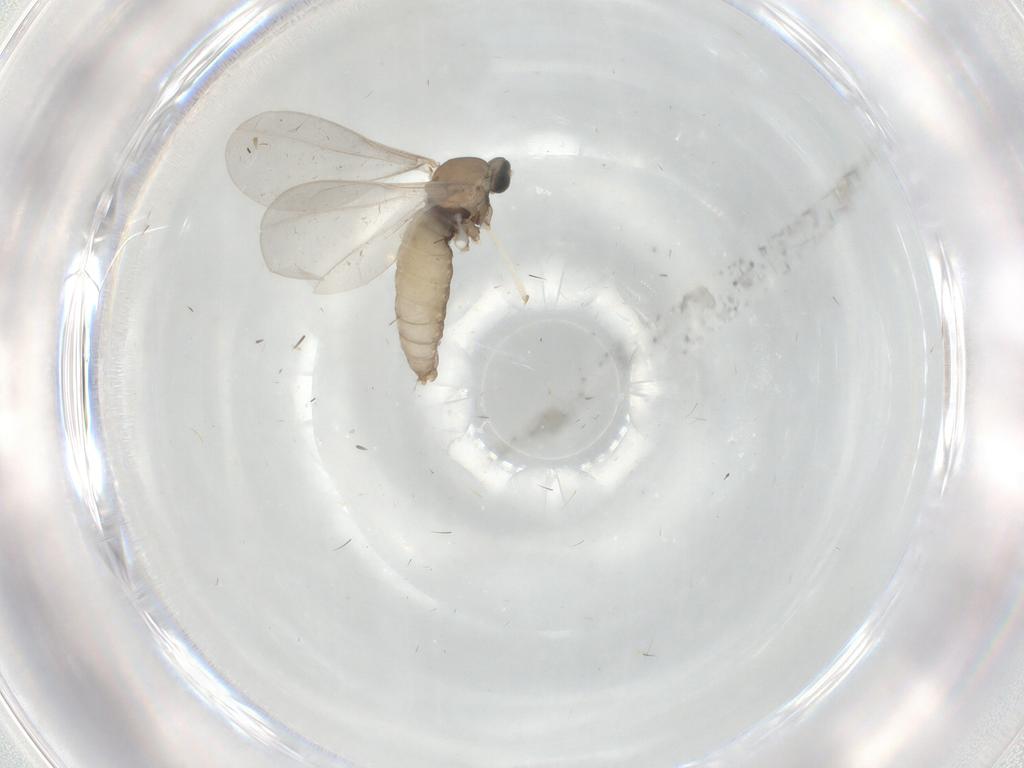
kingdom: Animalia
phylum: Arthropoda
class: Insecta
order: Diptera
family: Cecidomyiidae
